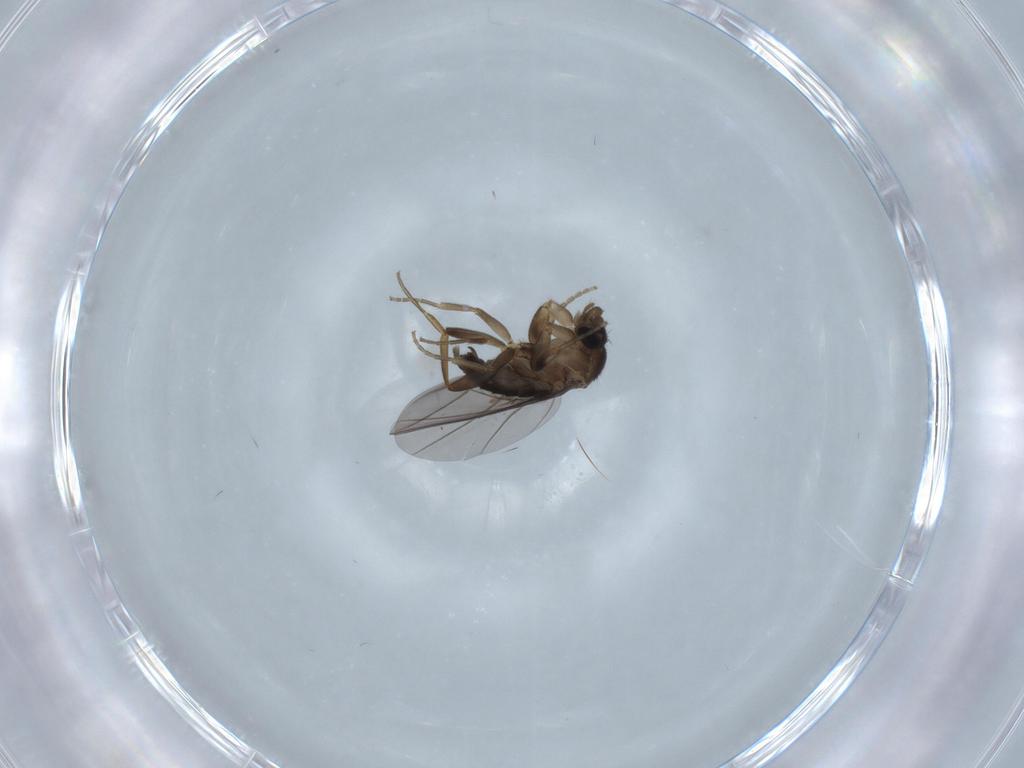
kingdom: Animalia
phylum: Arthropoda
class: Insecta
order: Diptera
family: Phoridae
